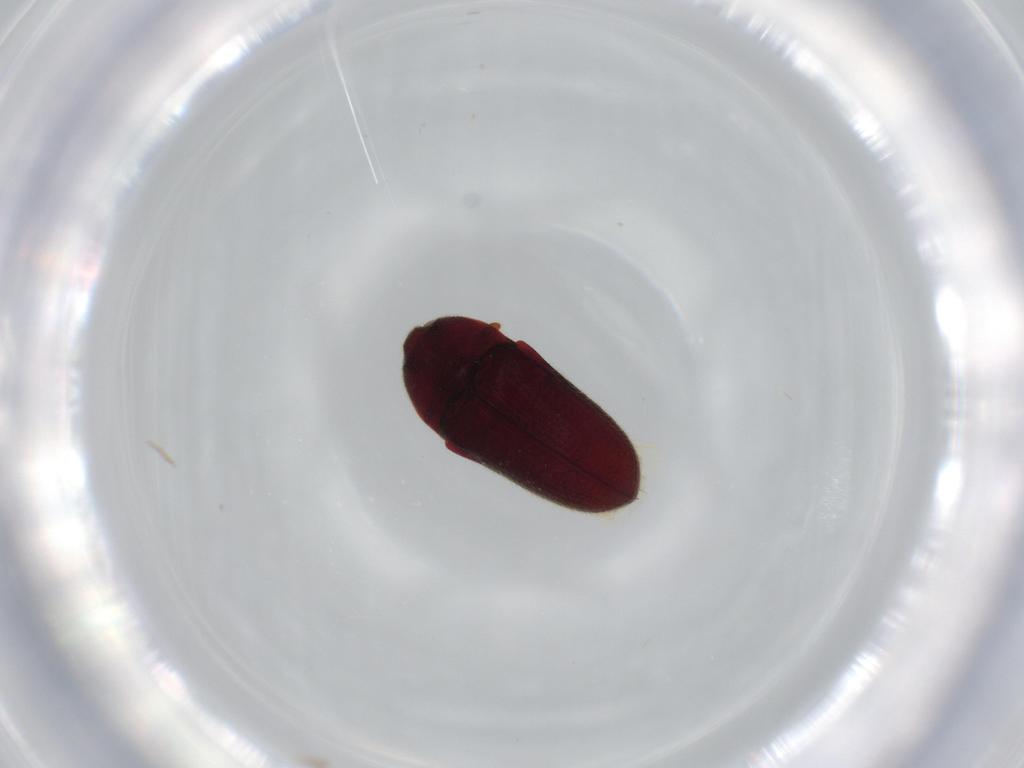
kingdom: Animalia
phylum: Arthropoda
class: Insecta
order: Coleoptera
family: Throscidae
